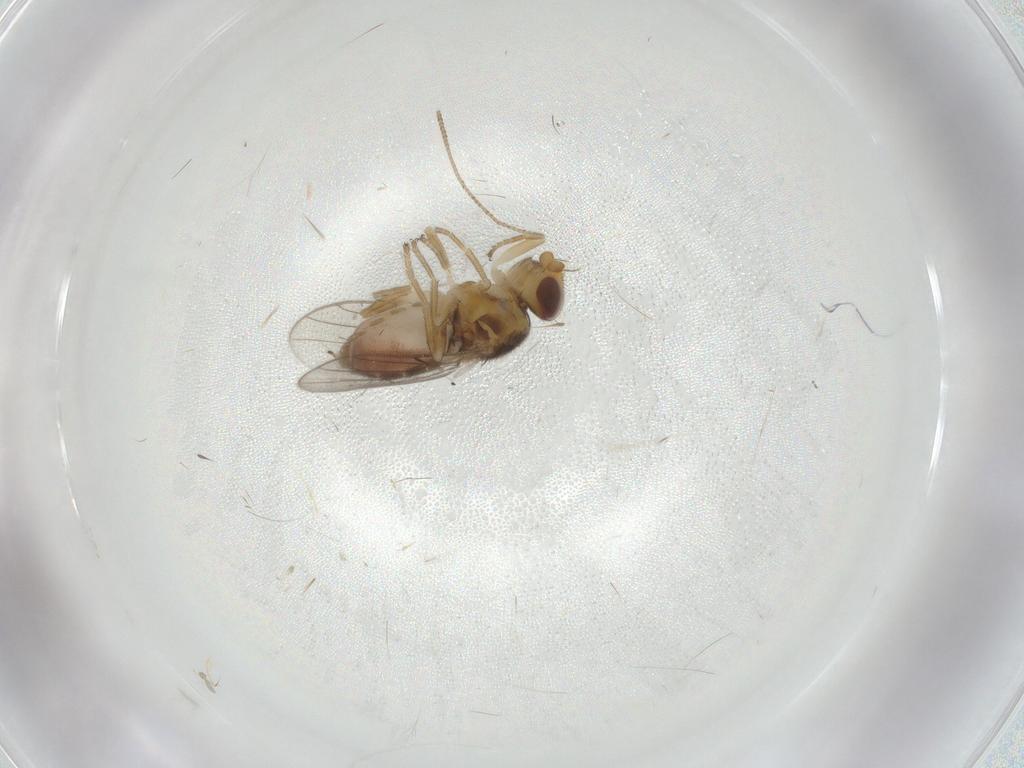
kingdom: Animalia
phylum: Arthropoda
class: Insecta
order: Diptera
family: Chloropidae
